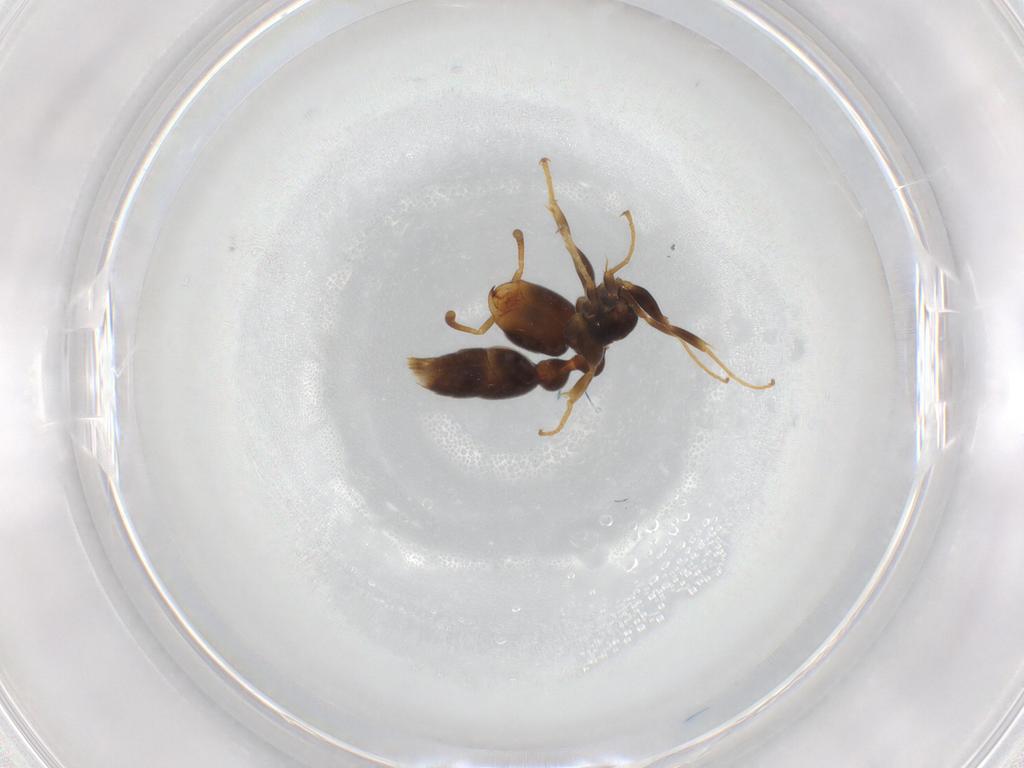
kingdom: Animalia
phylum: Arthropoda
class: Insecta
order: Hymenoptera
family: Formicidae
